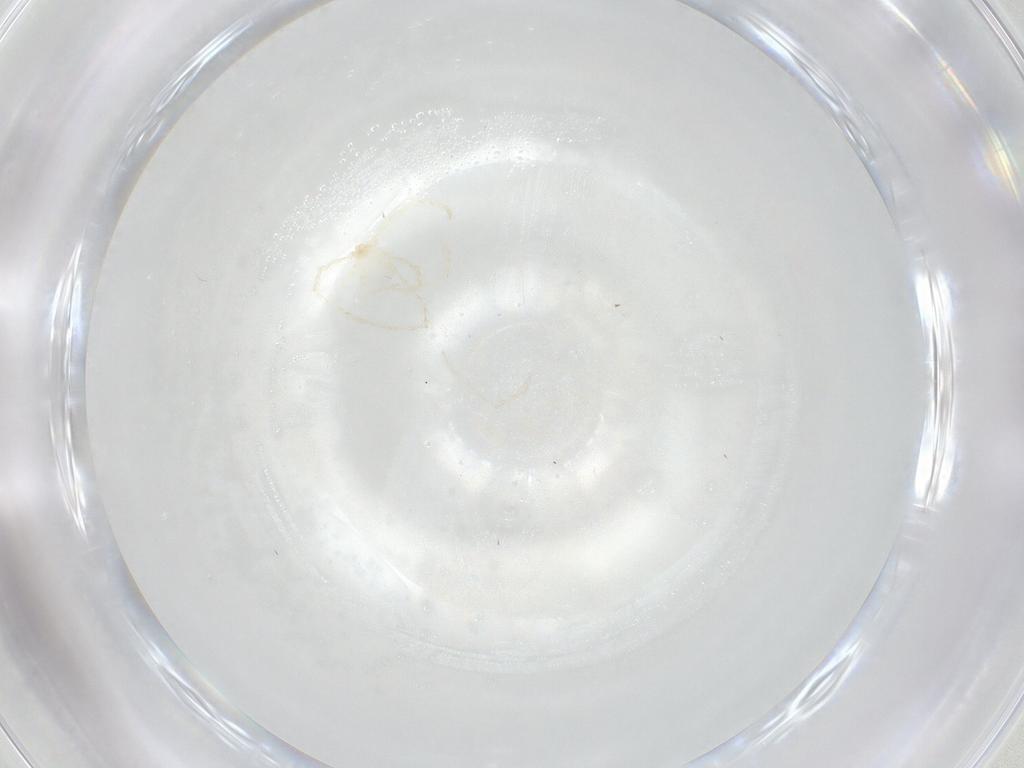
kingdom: Animalia
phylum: Arthropoda
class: Arachnida
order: Trombidiformes
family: Erythraeidae
